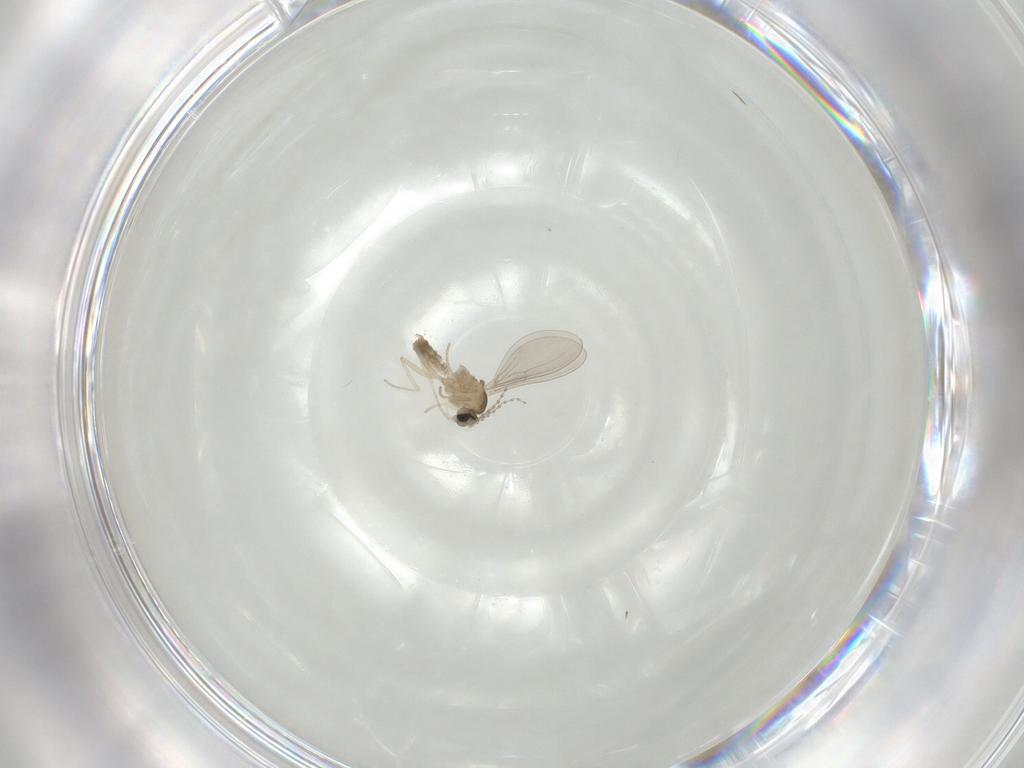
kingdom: Animalia
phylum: Arthropoda
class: Insecta
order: Diptera
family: Cecidomyiidae
